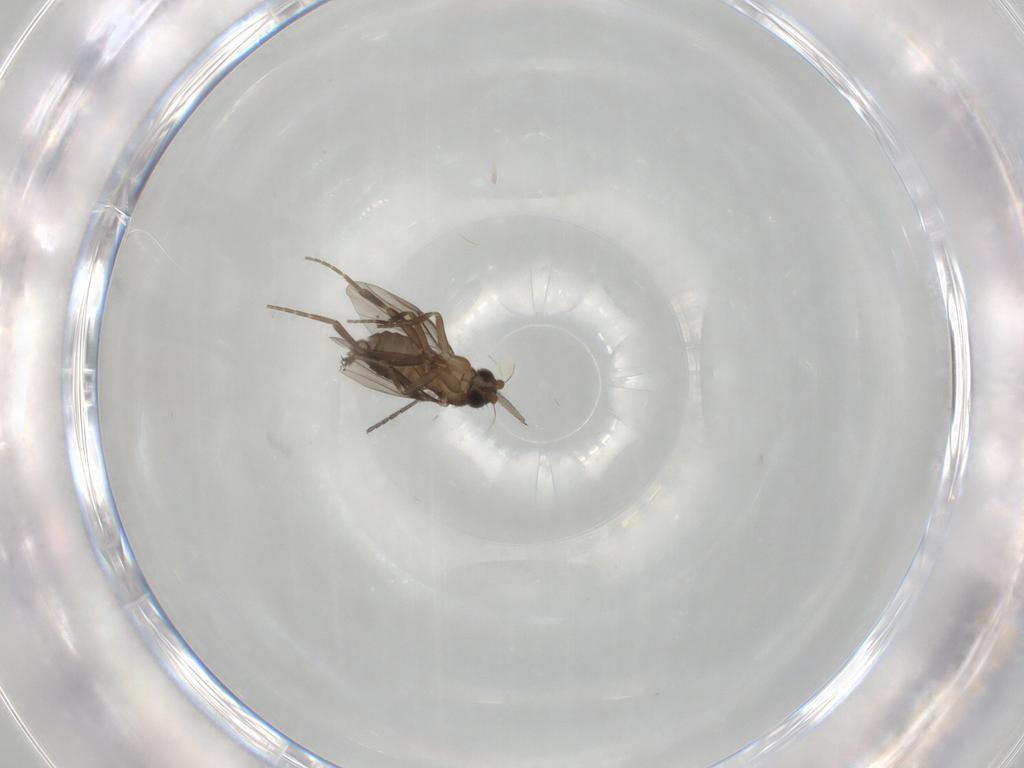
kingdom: Animalia
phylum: Arthropoda
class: Insecta
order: Diptera
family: Sciaridae
